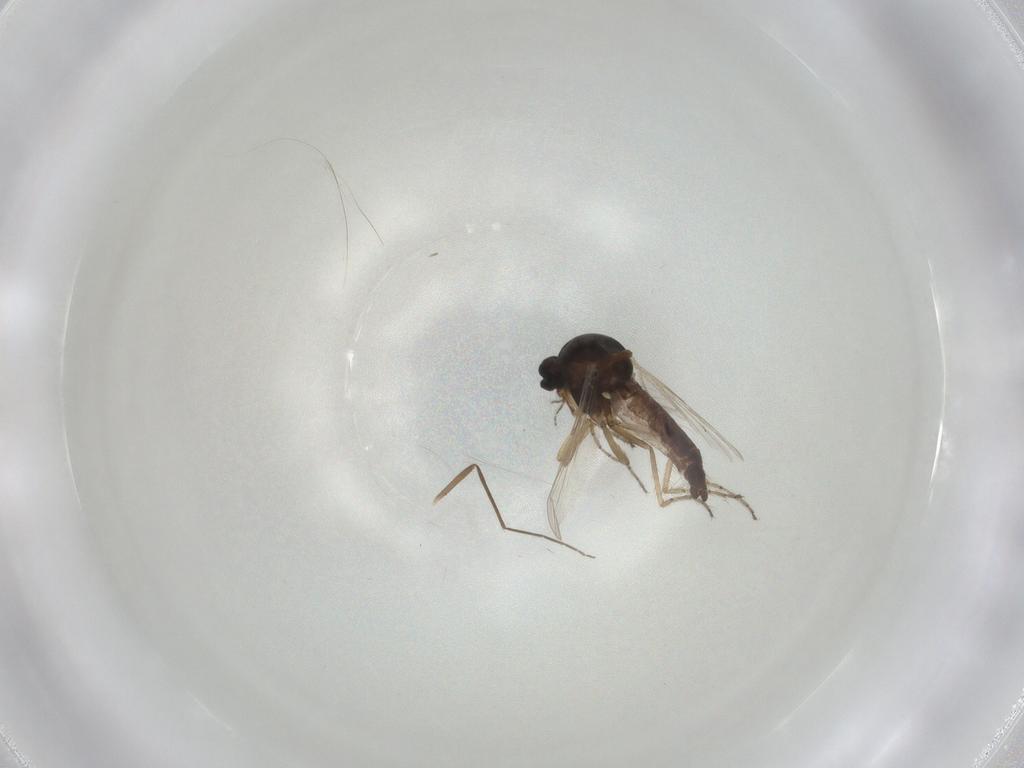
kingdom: Animalia
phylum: Arthropoda
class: Insecta
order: Diptera
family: Ceratopogonidae
